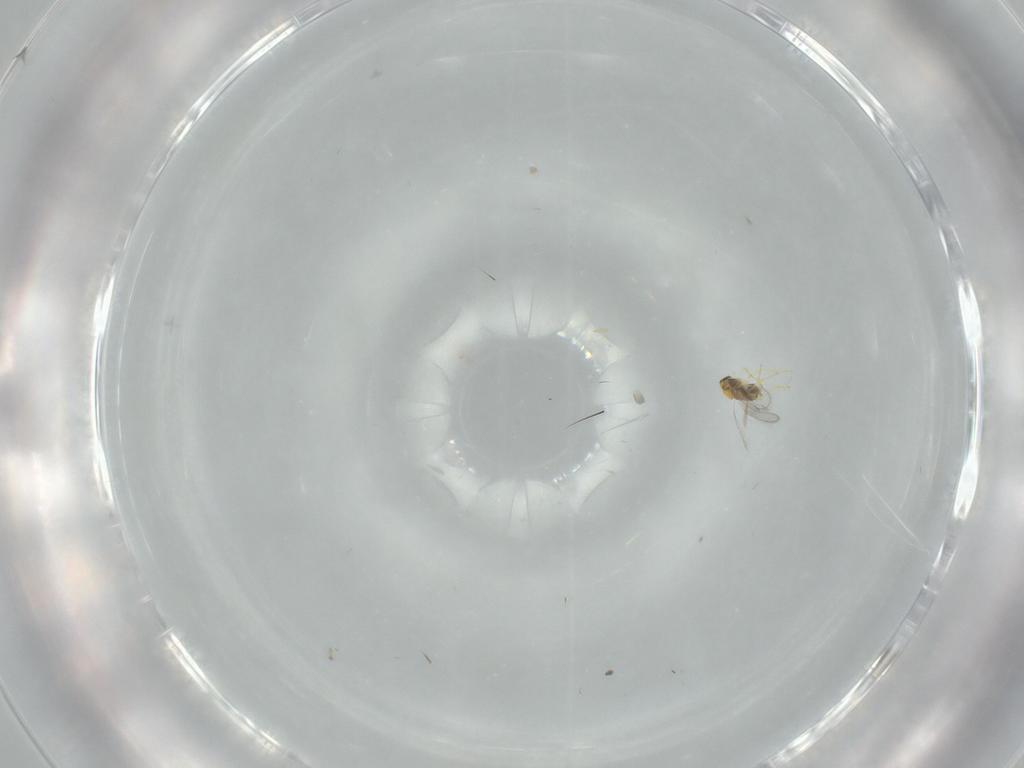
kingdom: Animalia
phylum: Arthropoda
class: Insecta
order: Hymenoptera
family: Aphelinidae
